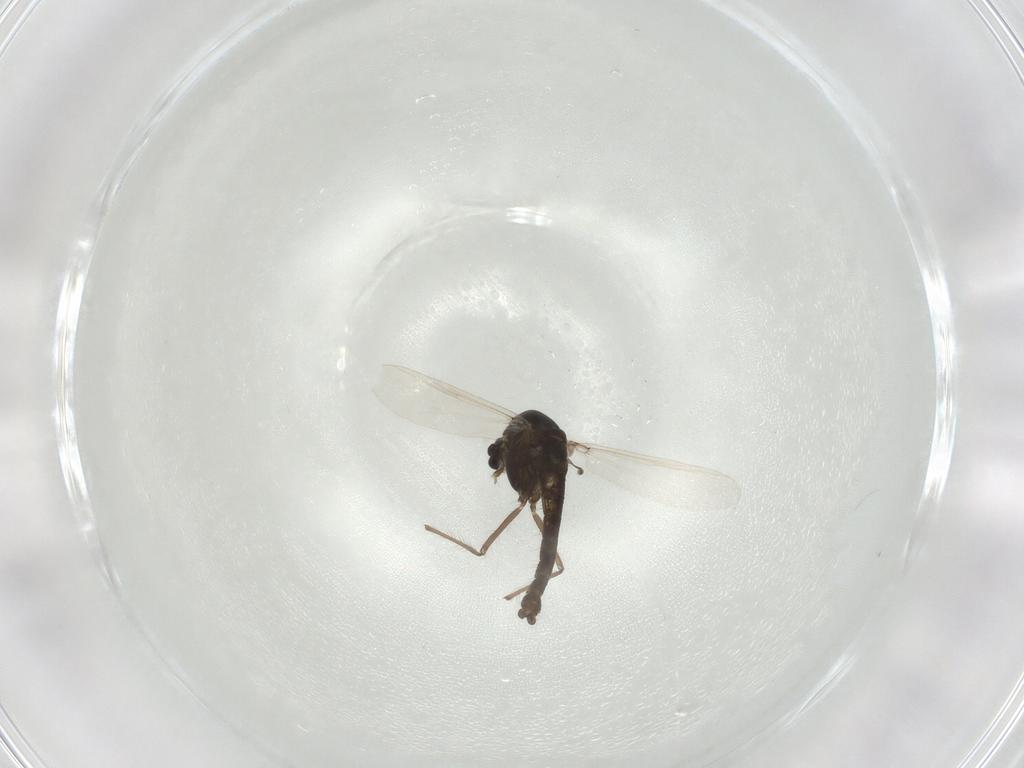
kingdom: Animalia
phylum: Arthropoda
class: Insecta
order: Diptera
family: Chironomidae
